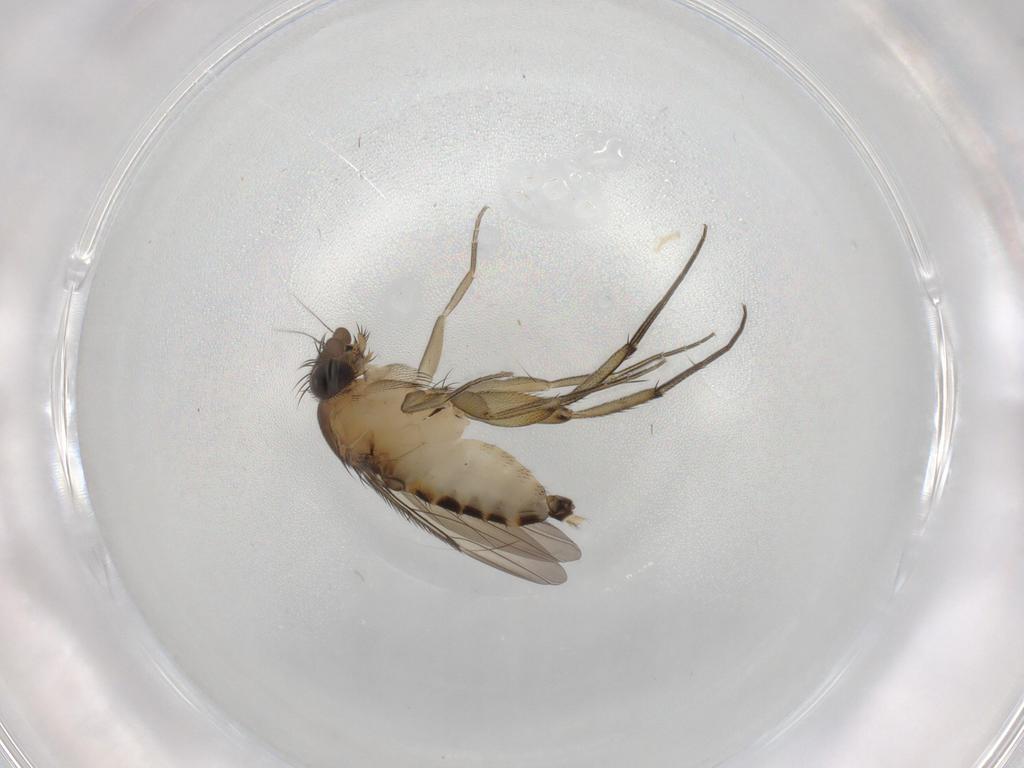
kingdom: Animalia
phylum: Arthropoda
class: Insecta
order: Diptera
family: Phoridae
